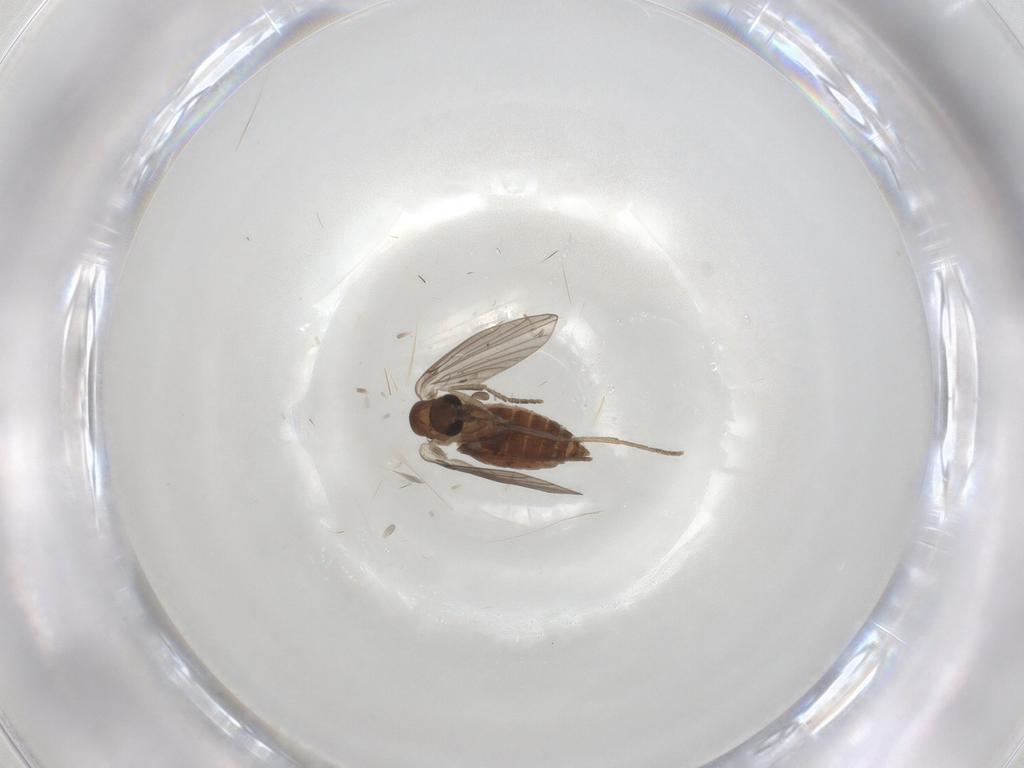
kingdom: Animalia
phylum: Arthropoda
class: Insecta
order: Diptera
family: Psychodidae
